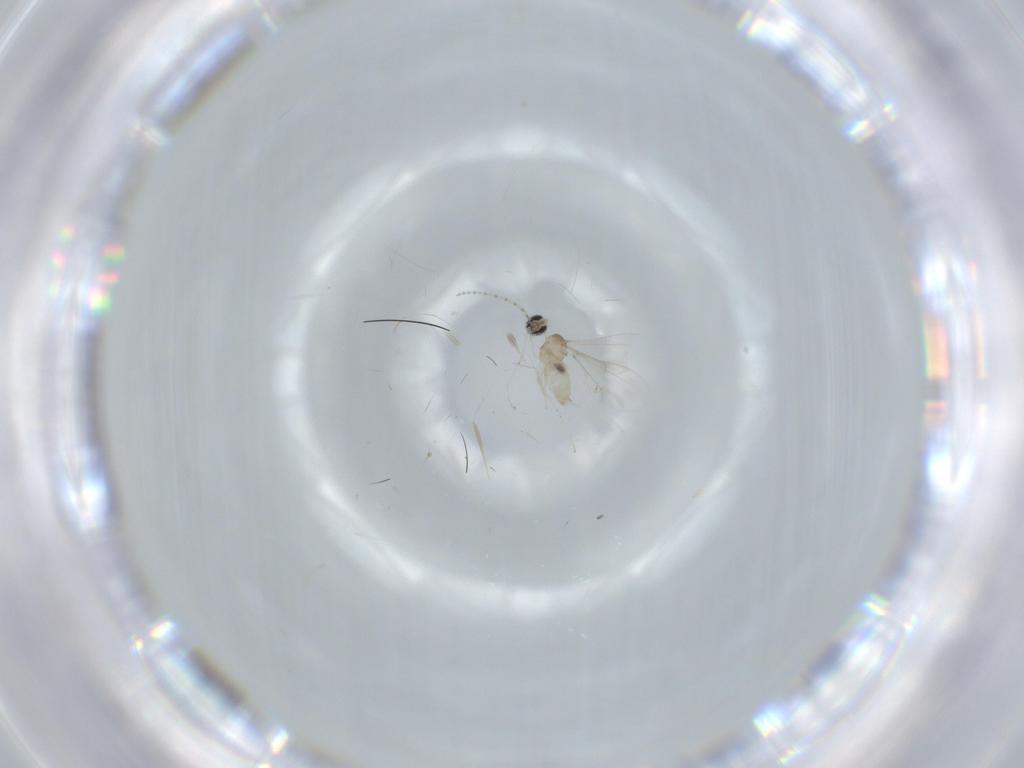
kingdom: Animalia
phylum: Arthropoda
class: Insecta
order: Diptera
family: Cecidomyiidae
